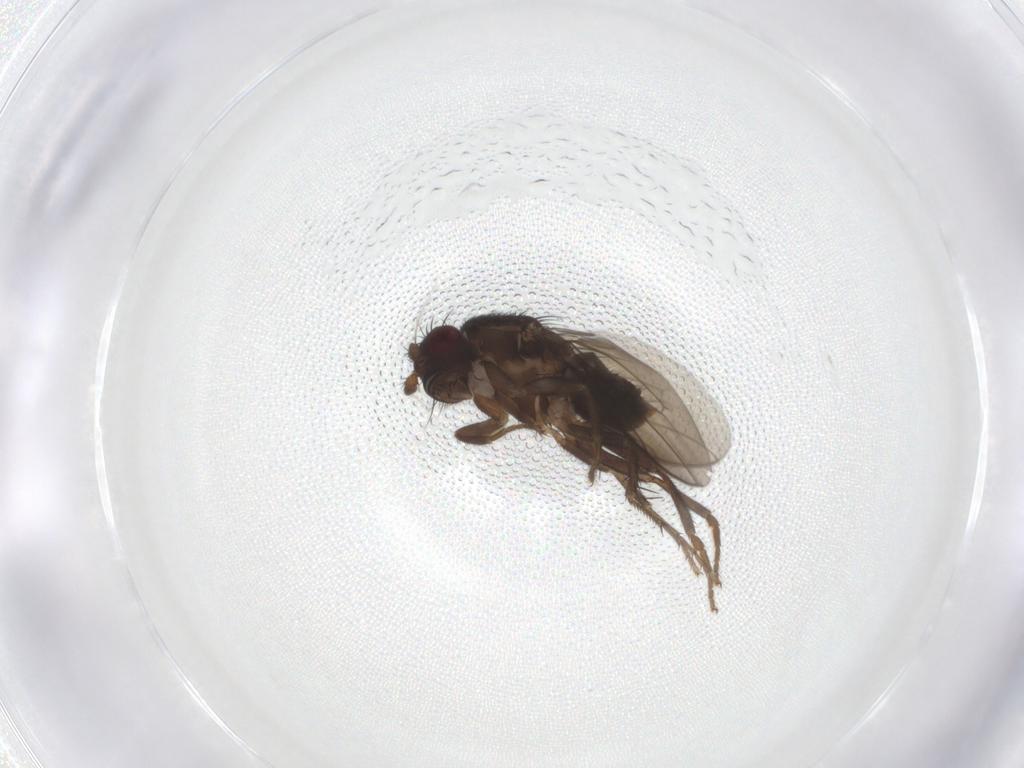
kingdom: Animalia
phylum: Arthropoda
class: Insecta
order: Diptera
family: Sphaeroceridae
